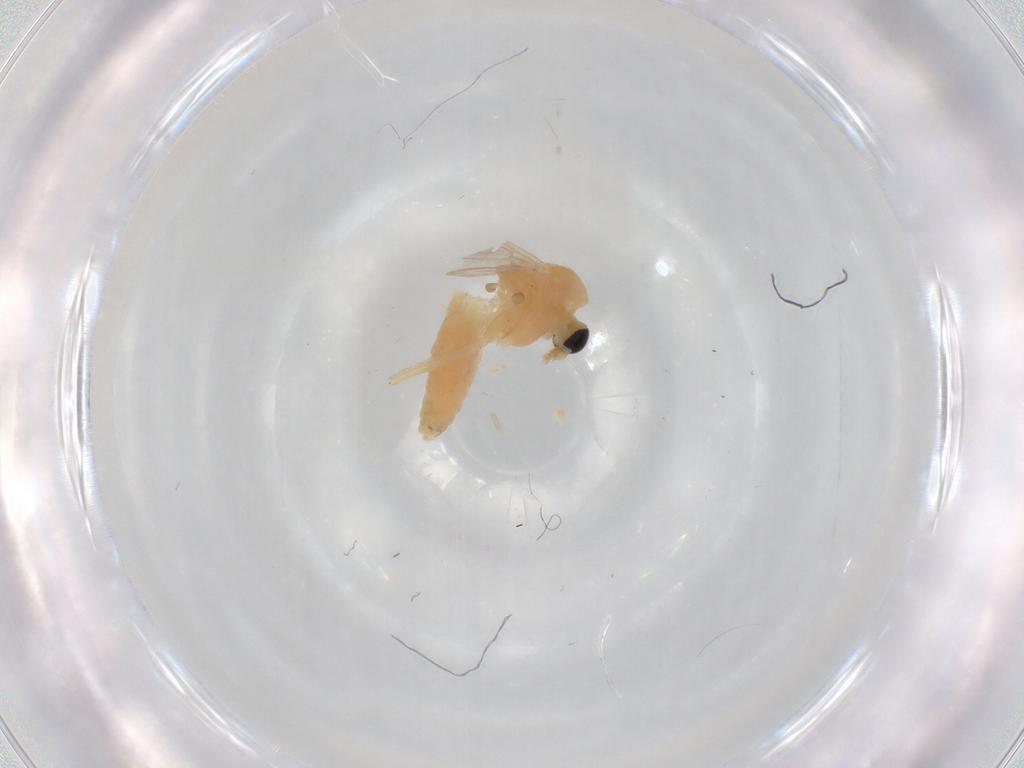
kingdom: Animalia
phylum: Arthropoda
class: Insecta
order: Diptera
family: Chironomidae
